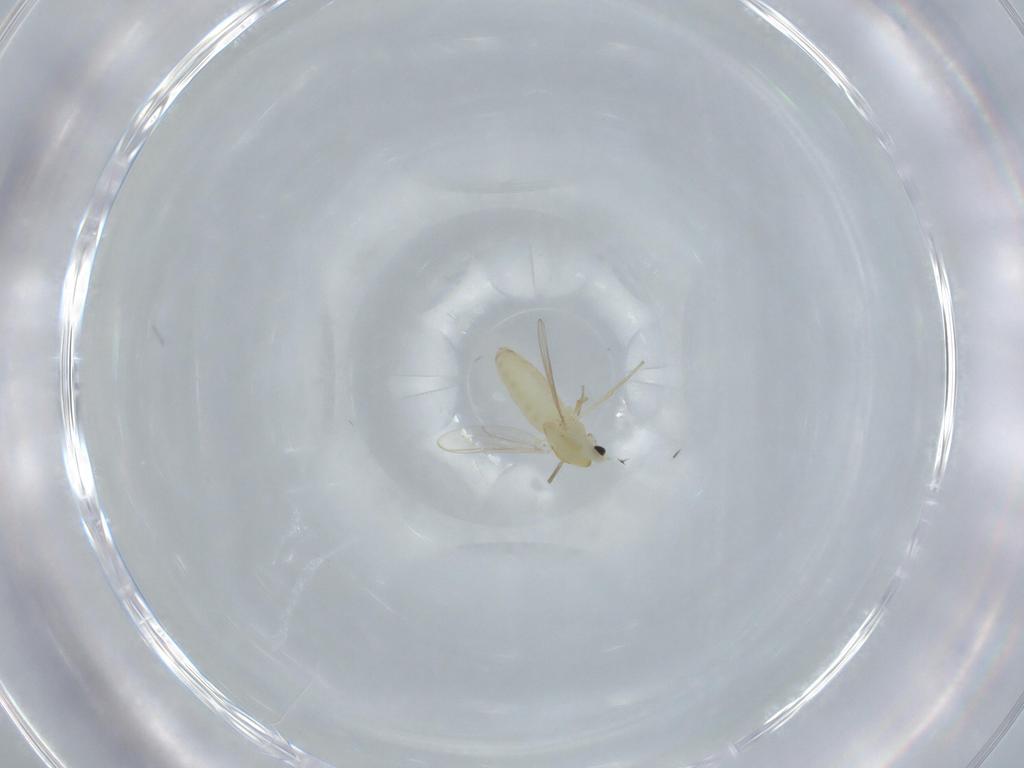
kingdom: Animalia
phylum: Arthropoda
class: Insecta
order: Diptera
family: Chironomidae
